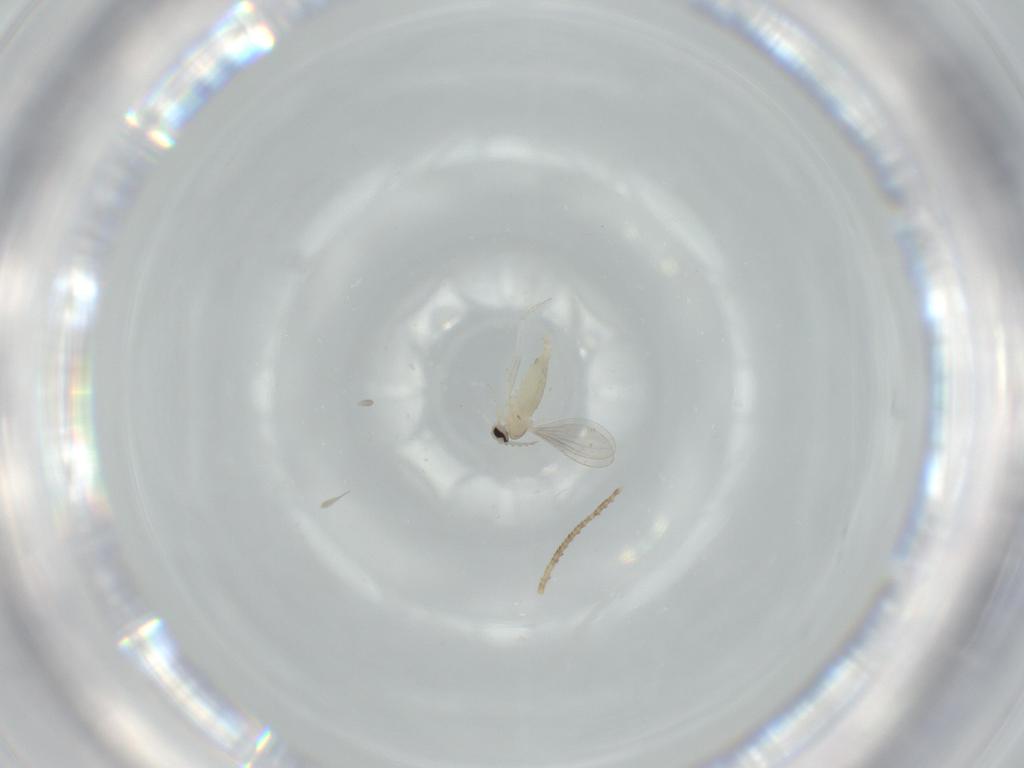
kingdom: Animalia
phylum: Arthropoda
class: Insecta
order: Diptera
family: Cecidomyiidae
